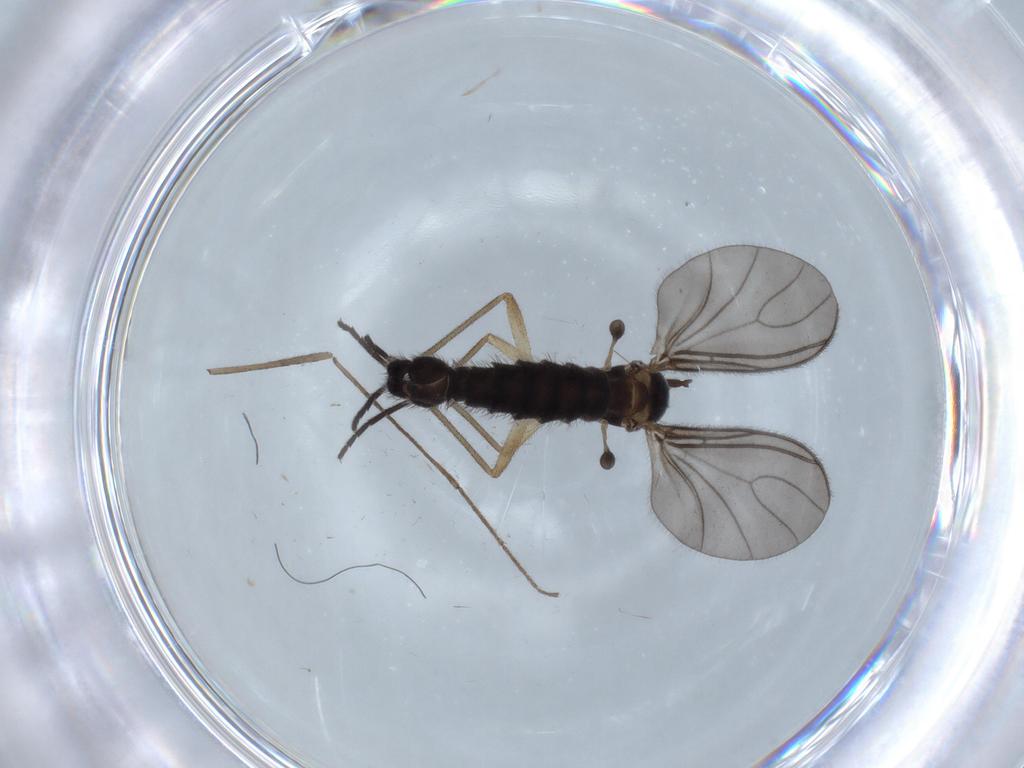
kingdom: Animalia
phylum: Arthropoda
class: Insecta
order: Diptera
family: Sciaridae
